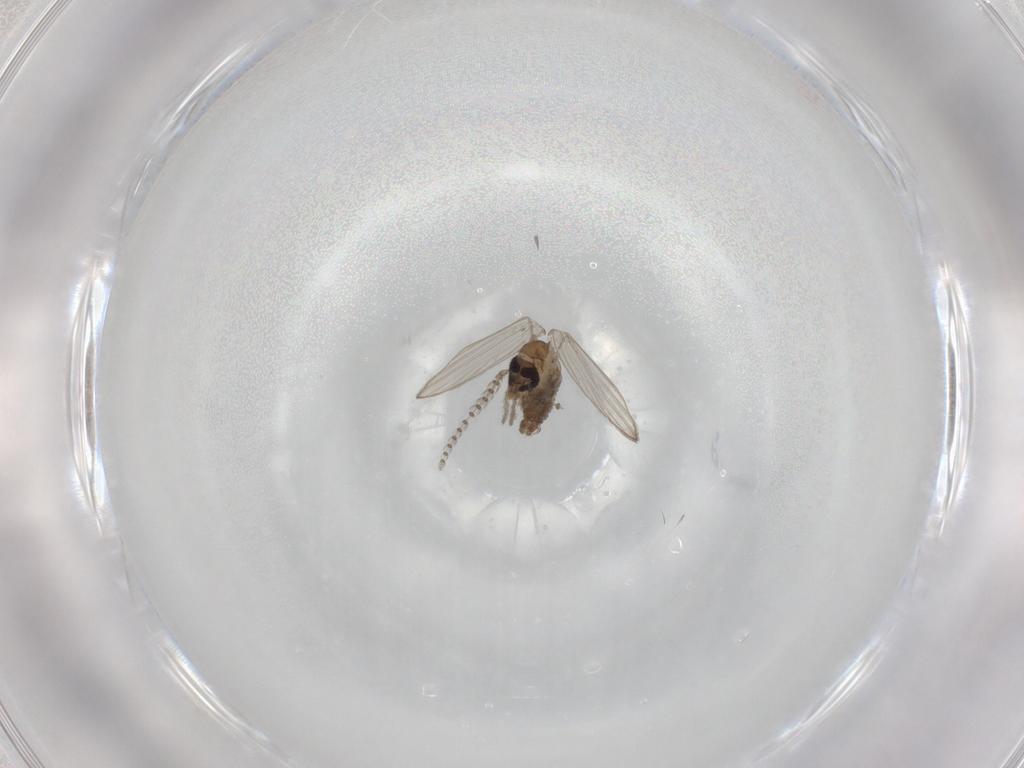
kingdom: Animalia
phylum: Arthropoda
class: Insecta
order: Diptera
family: Psychodidae
